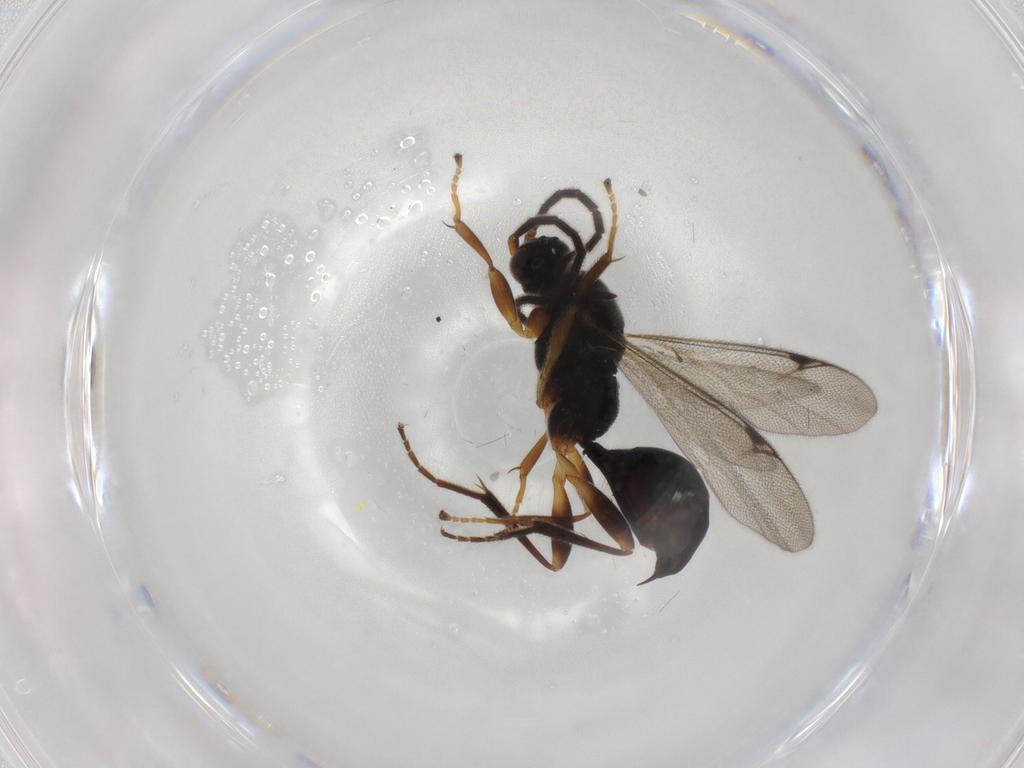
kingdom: Animalia
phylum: Arthropoda
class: Insecta
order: Hymenoptera
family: Proctotrupidae
